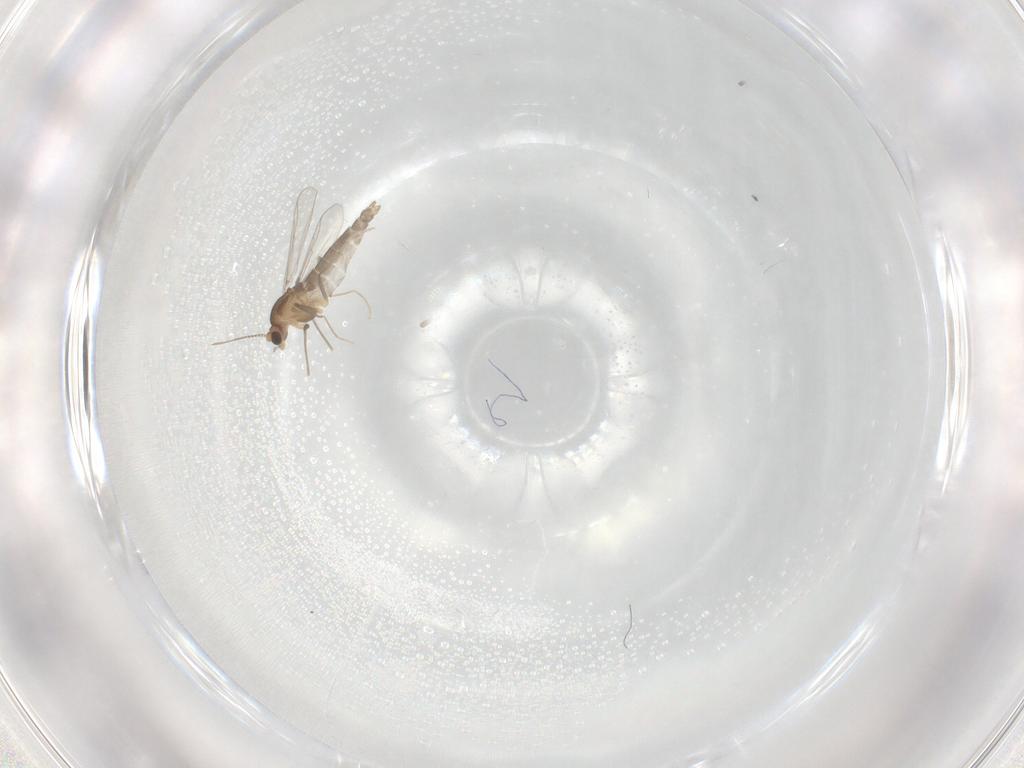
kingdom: Animalia
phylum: Arthropoda
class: Insecta
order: Diptera
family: Chironomidae
